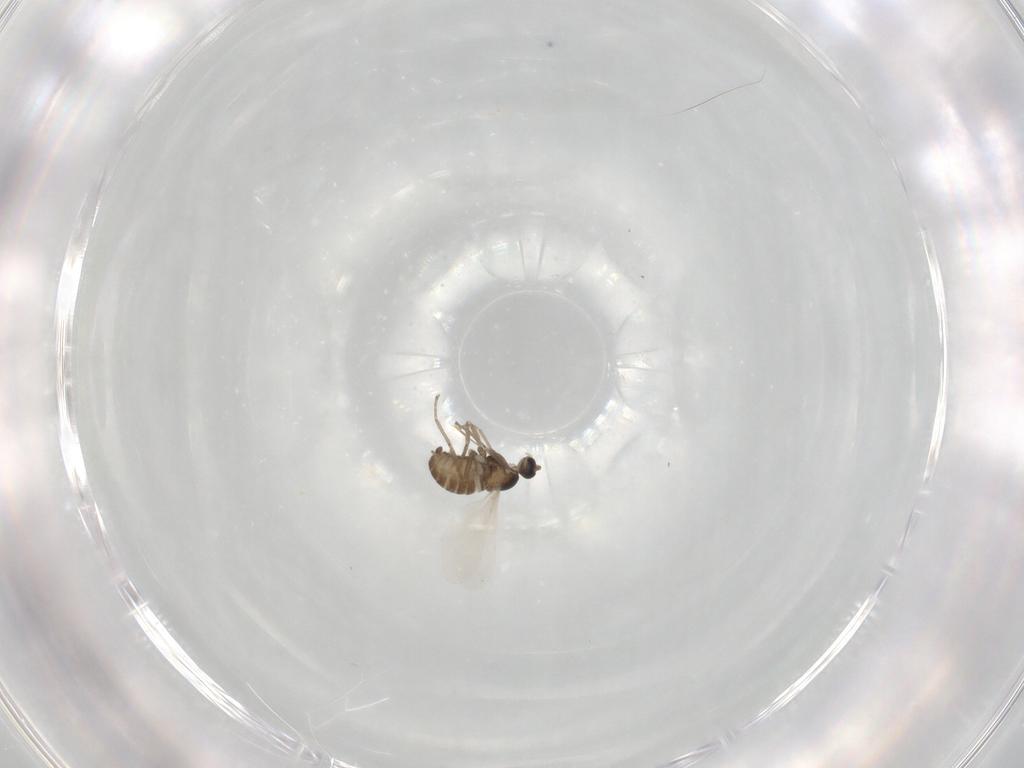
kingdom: Animalia
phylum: Arthropoda
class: Insecta
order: Diptera
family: Cecidomyiidae
